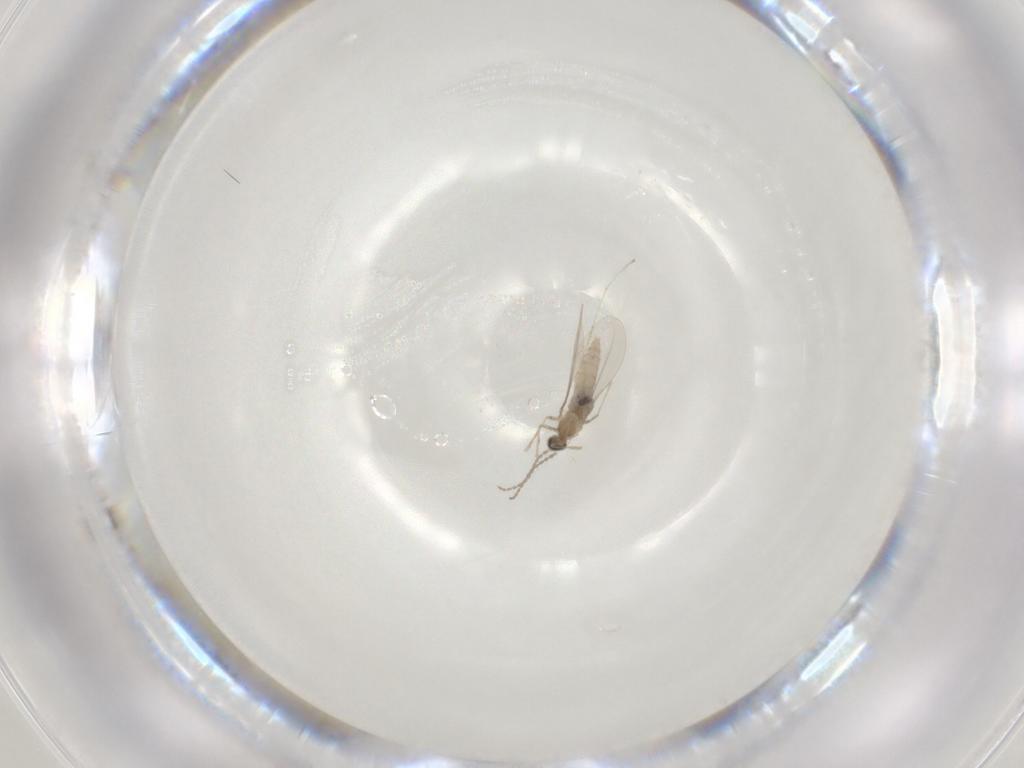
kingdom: Animalia
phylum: Arthropoda
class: Insecta
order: Diptera
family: Cecidomyiidae
